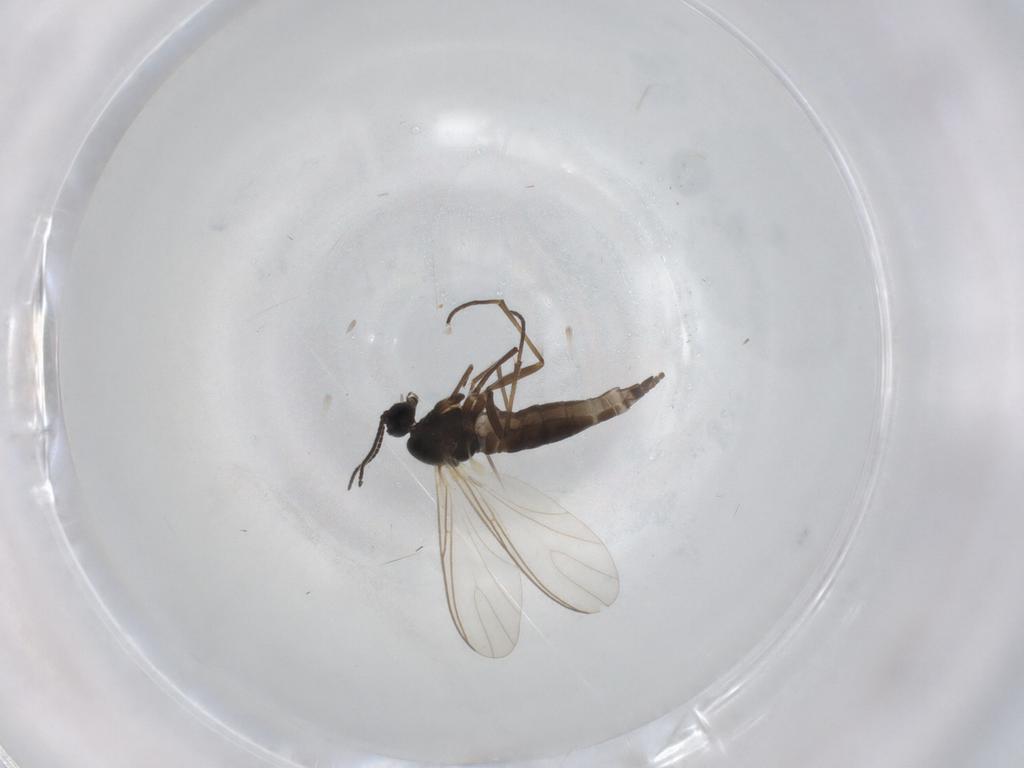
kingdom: Animalia
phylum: Arthropoda
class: Insecta
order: Diptera
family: Sciaridae
